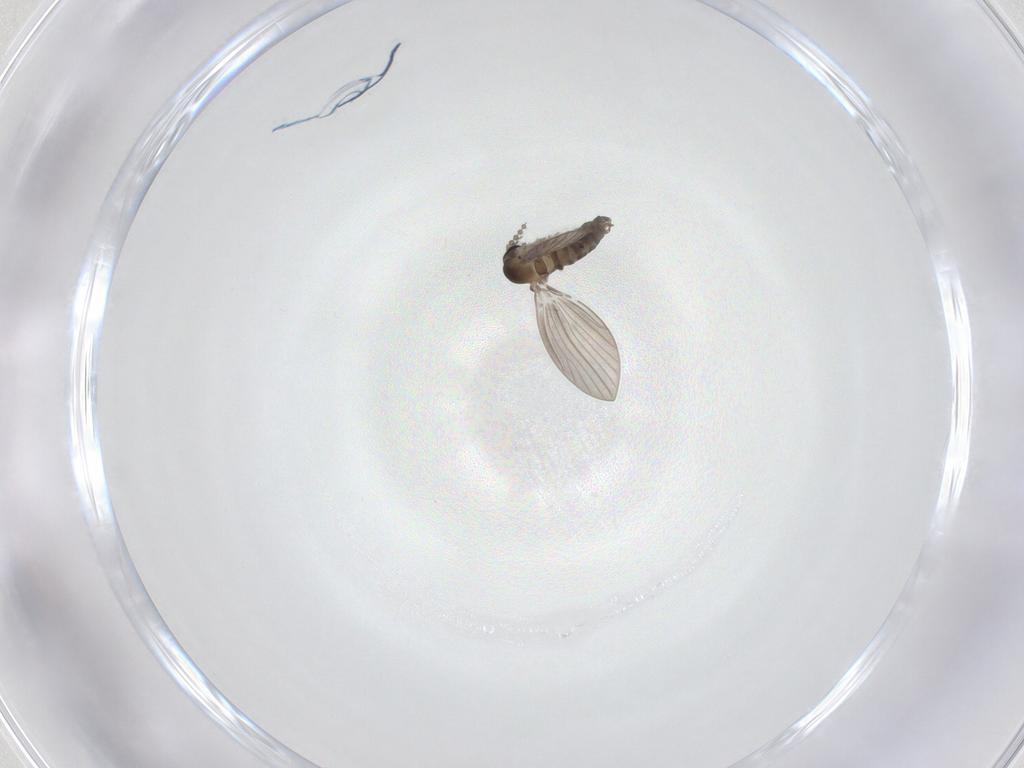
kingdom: Animalia
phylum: Arthropoda
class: Insecta
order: Diptera
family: Psychodidae
